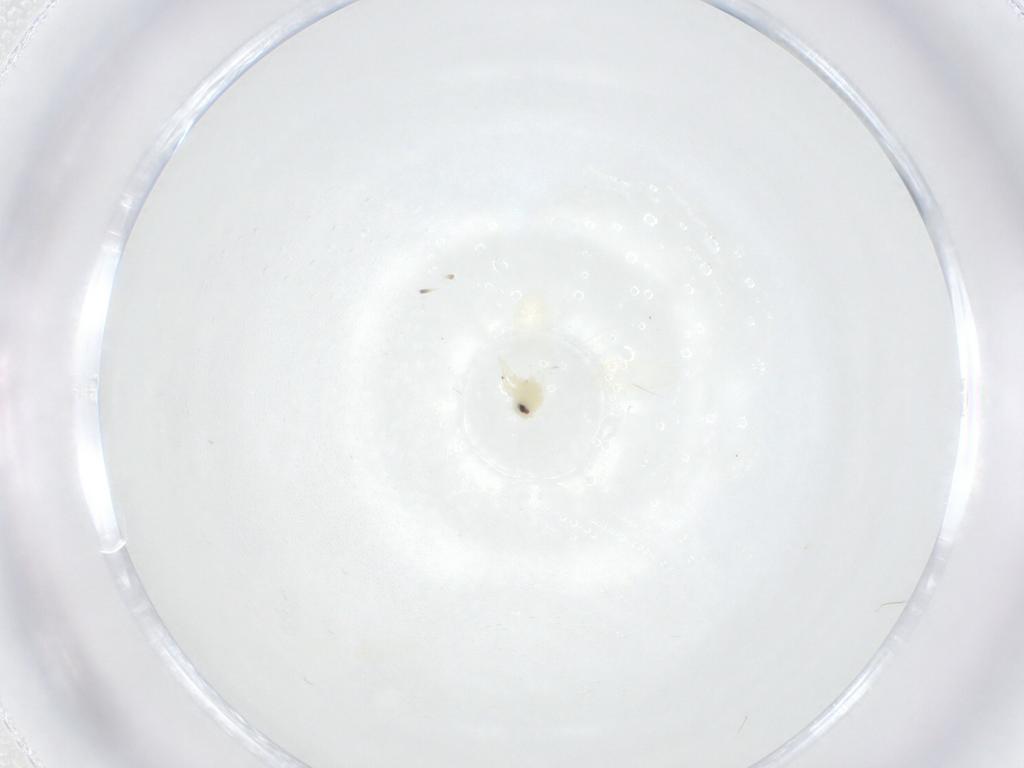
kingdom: Animalia
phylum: Arthropoda
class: Insecta
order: Hemiptera
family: Aleyrodidae
